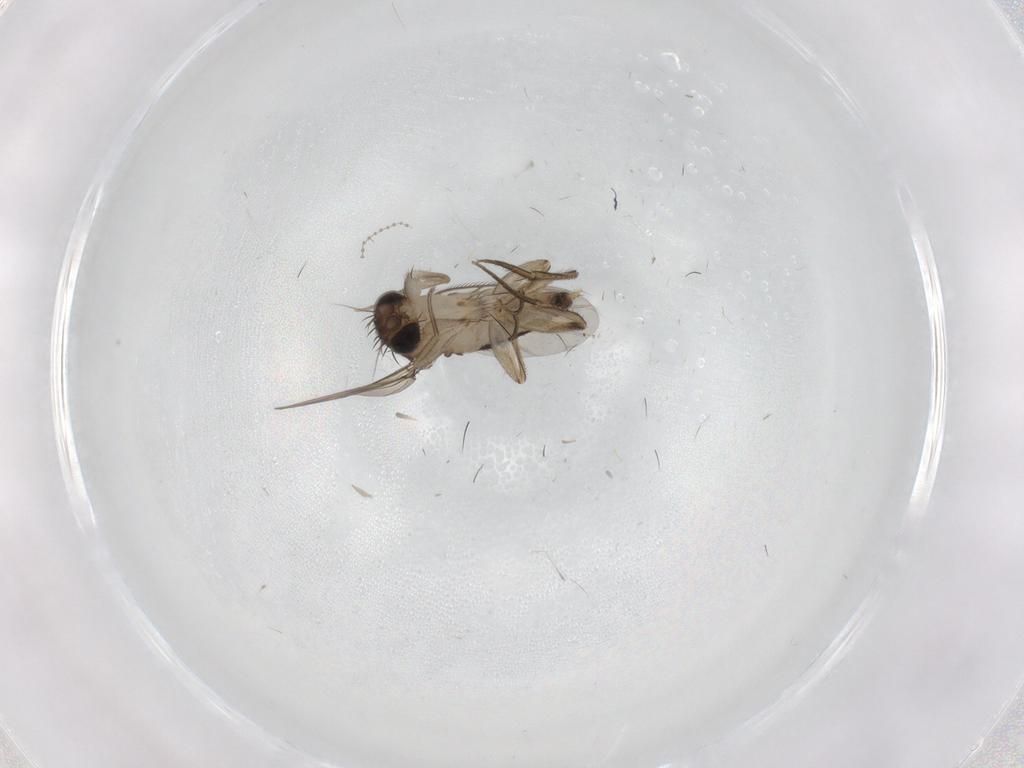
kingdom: Animalia
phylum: Arthropoda
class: Insecta
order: Diptera
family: Phoridae
